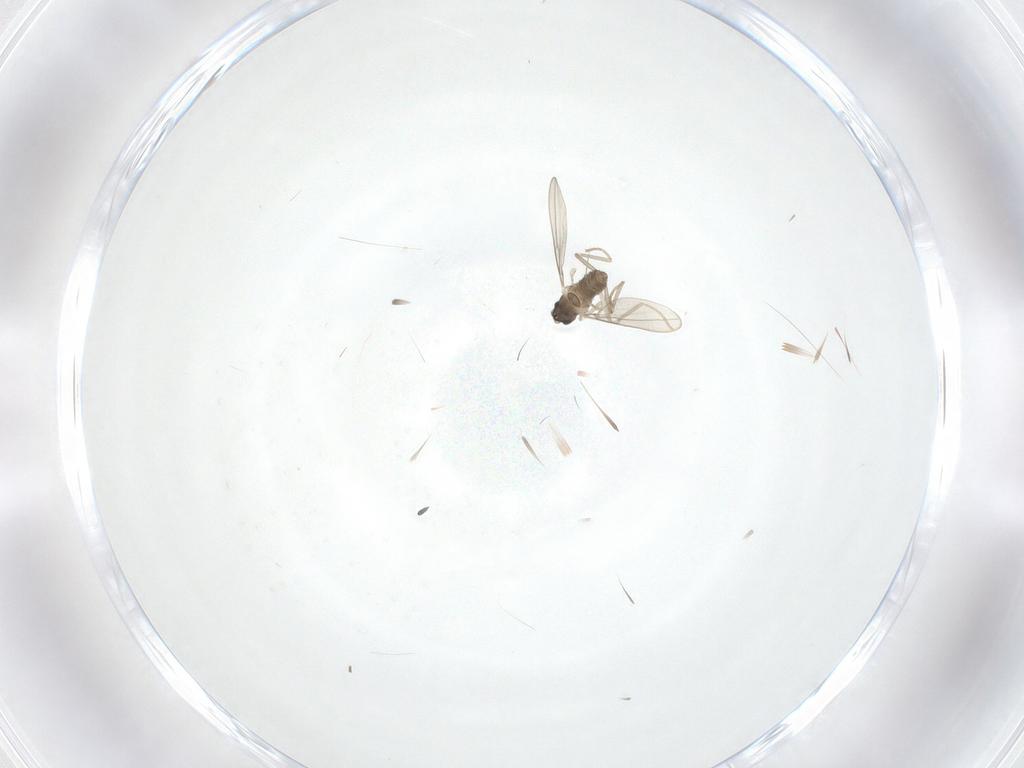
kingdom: Animalia
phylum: Arthropoda
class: Insecta
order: Diptera
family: Cecidomyiidae
